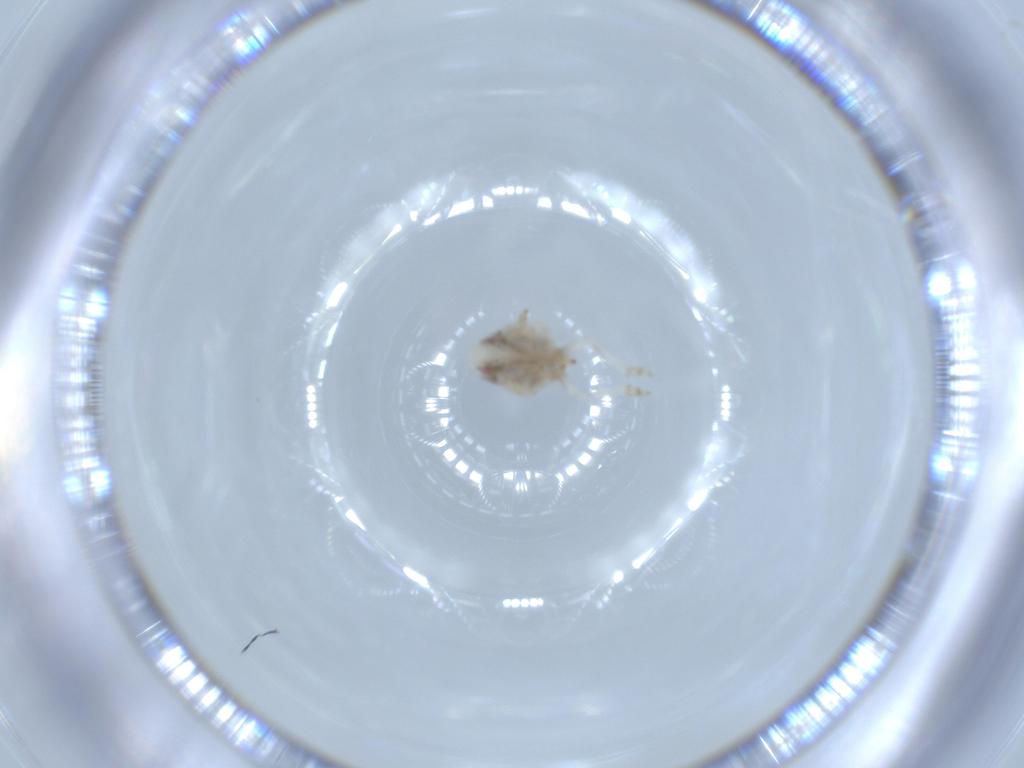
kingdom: Animalia
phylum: Arthropoda
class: Insecta
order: Hemiptera
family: Acanaloniidae
